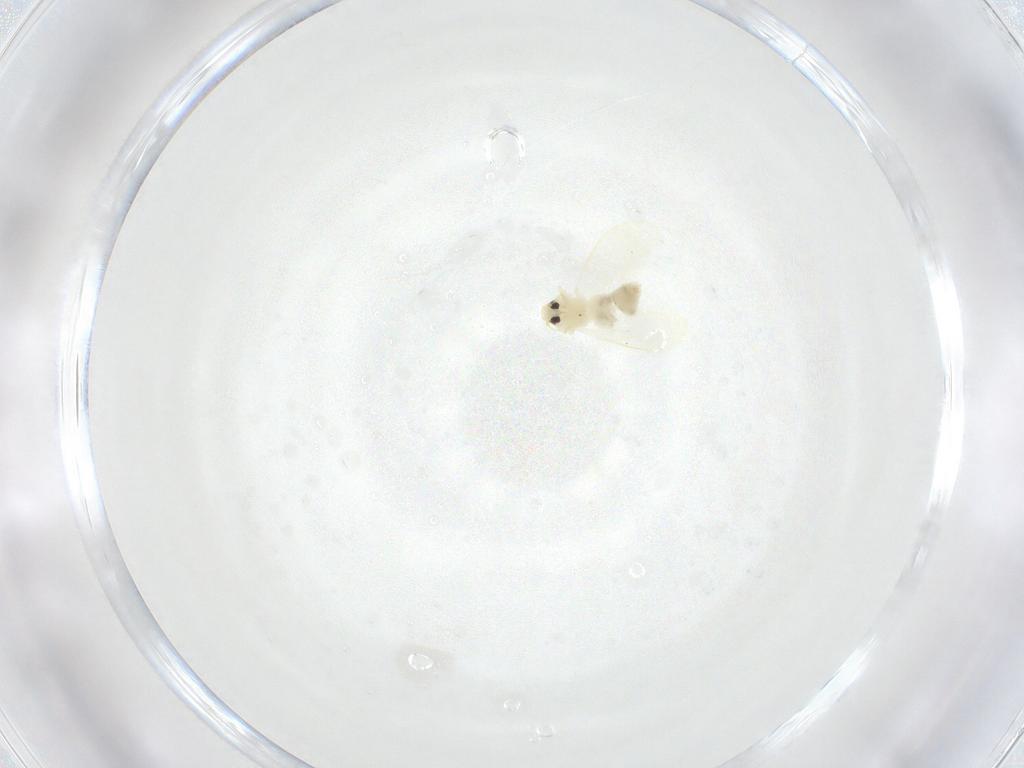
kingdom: Animalia
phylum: Arthropoda
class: Insecta
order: Hemiptera
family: Aleyrodidae
